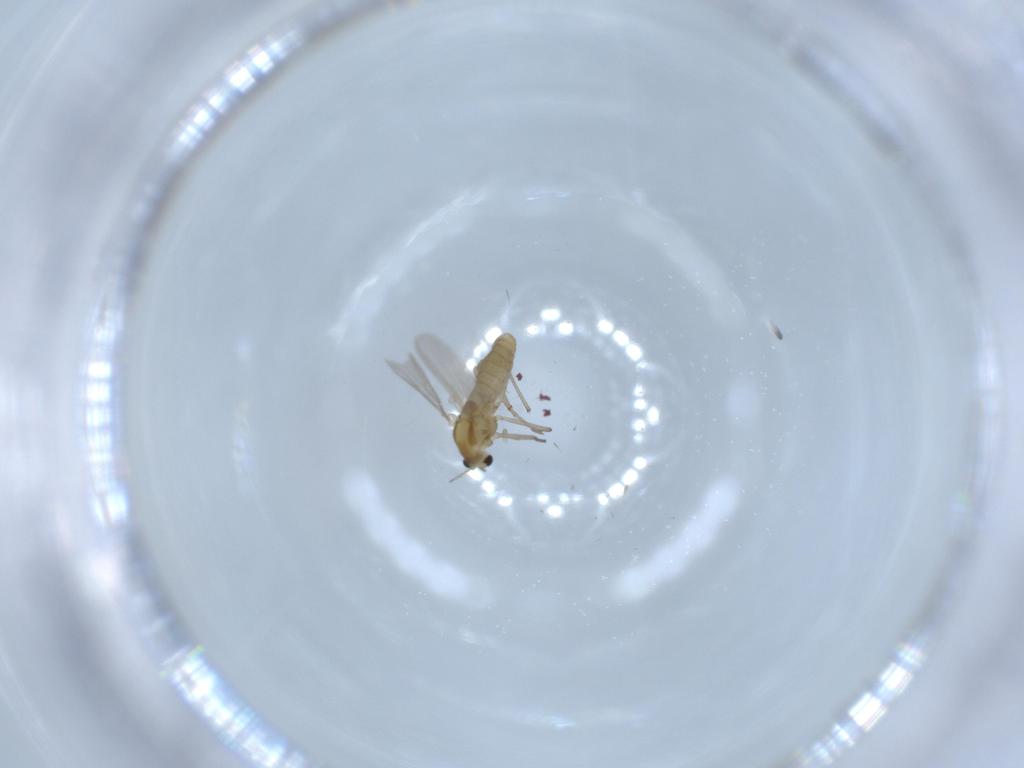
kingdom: Animalia
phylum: Arthropoda
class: Insecta
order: Diptera
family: Chironomidae
